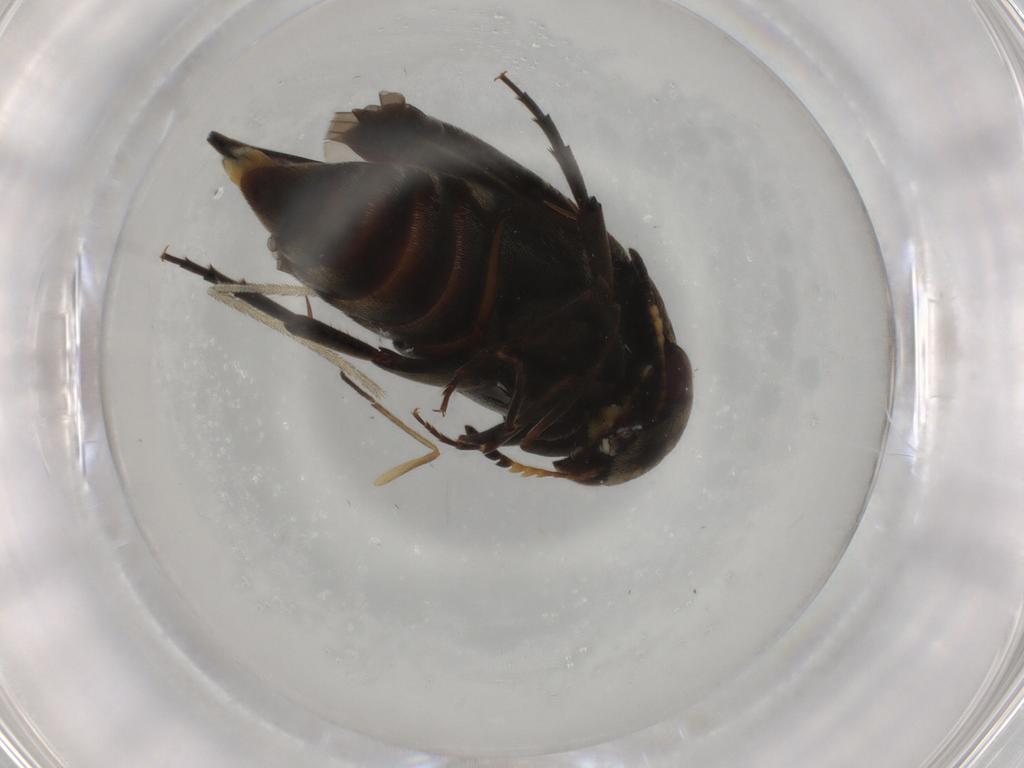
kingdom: Animalia
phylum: Arthropoda
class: Insecta
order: Coleoptera
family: Mordellidae
